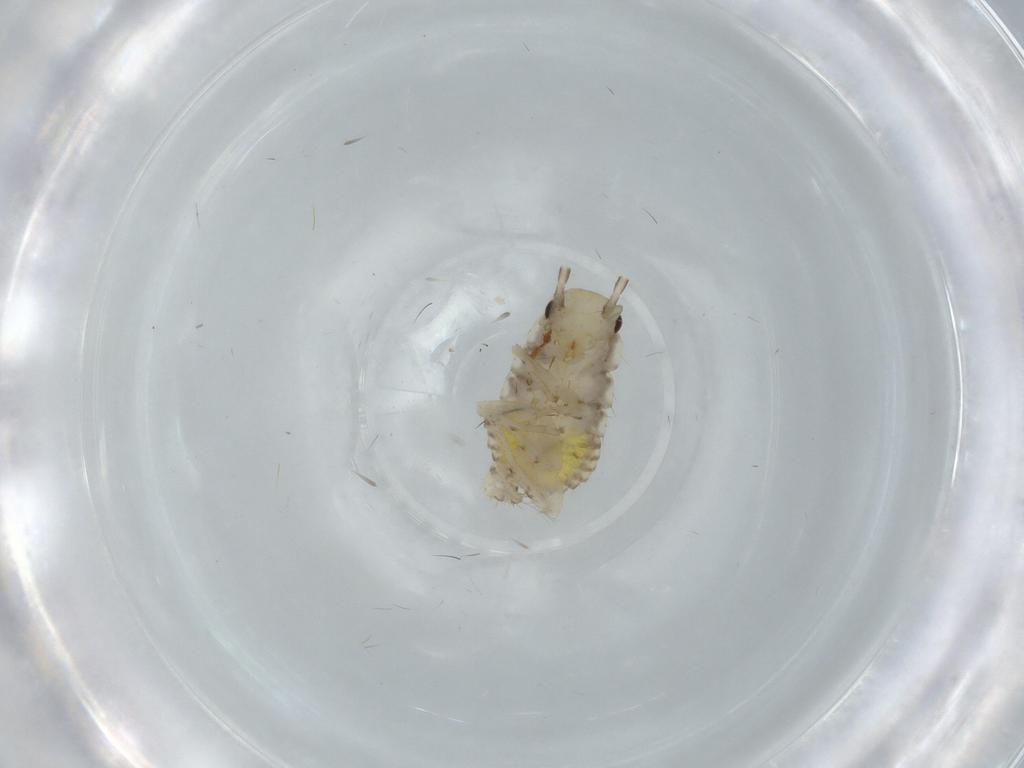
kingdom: Animalia
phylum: Arthropoda
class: Insecta
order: Blattodea
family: Ectobiidae
